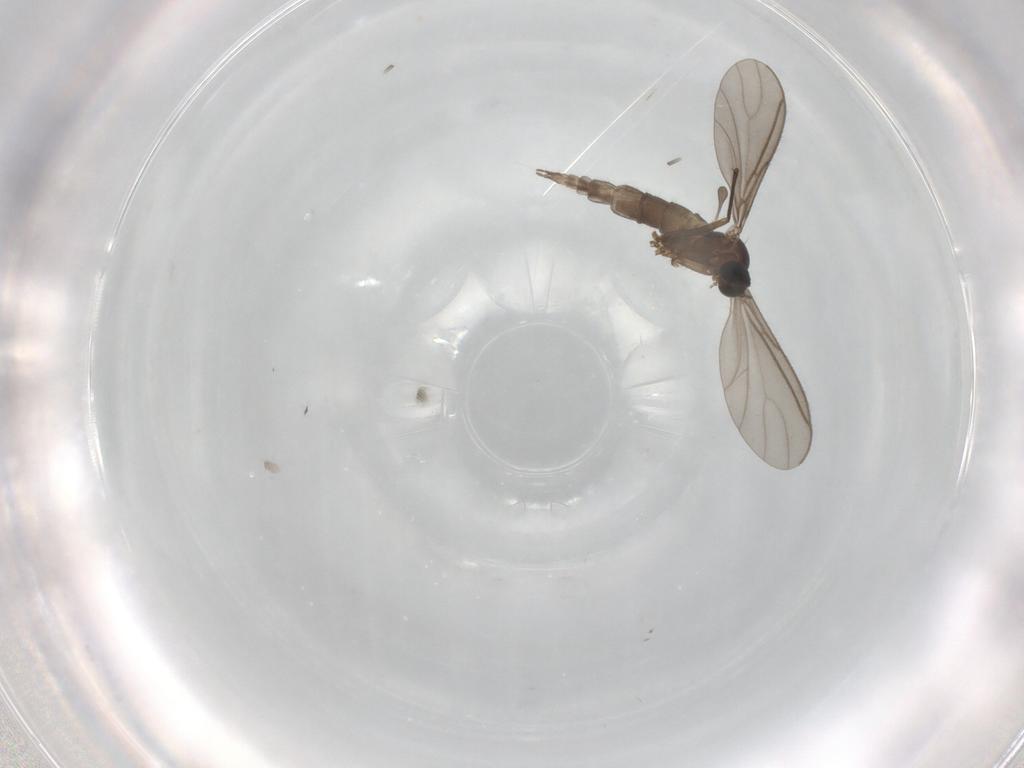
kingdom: Animalia
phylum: Arthropoda
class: Insecta
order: Diptera
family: Sciaridae
